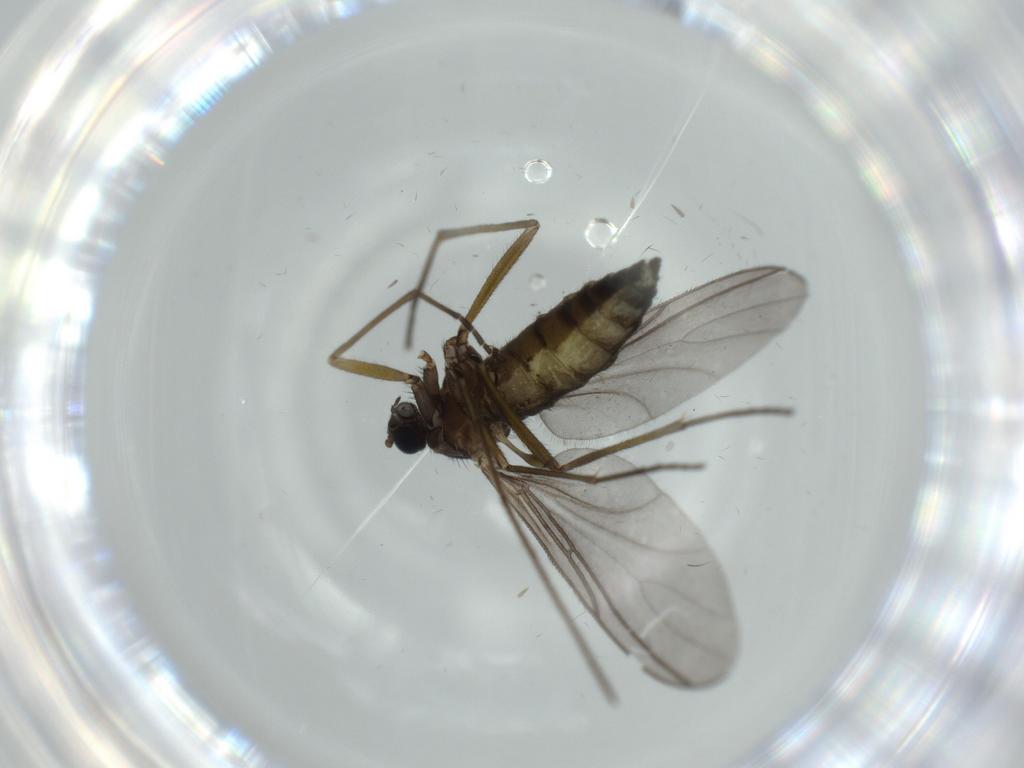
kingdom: Animalia
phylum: Arthropoda
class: Insecta
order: Diptera
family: Sciaridae
